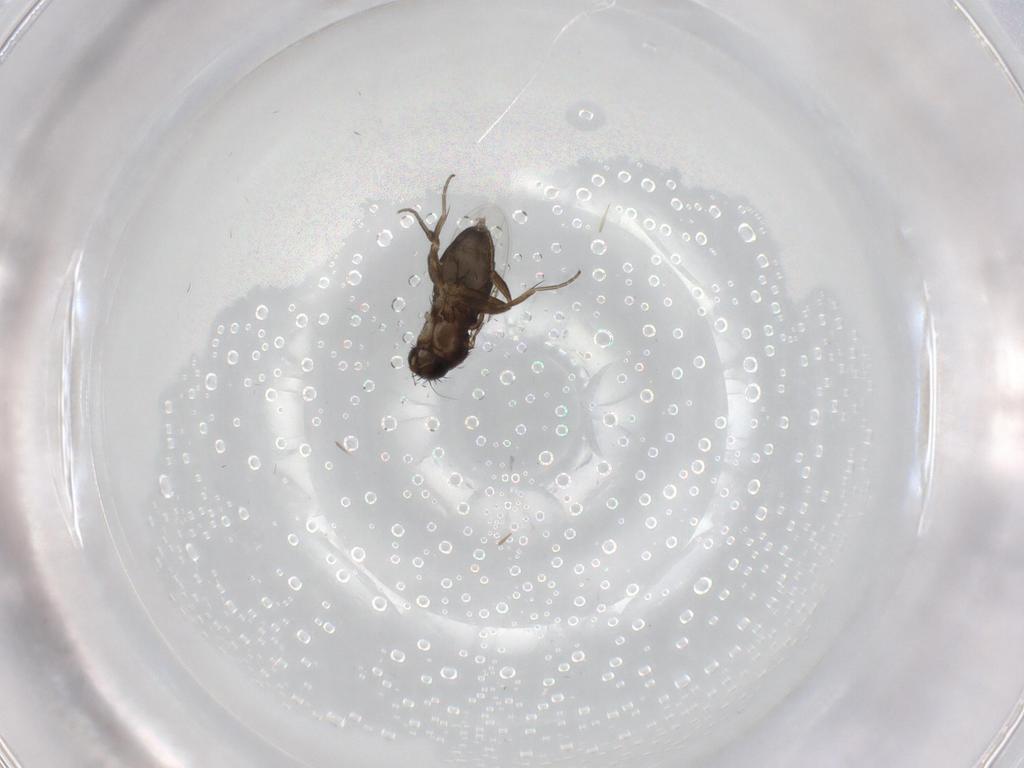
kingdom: Animalia
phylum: Arthropoda
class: Insecta
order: Diptera
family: Phoridae
